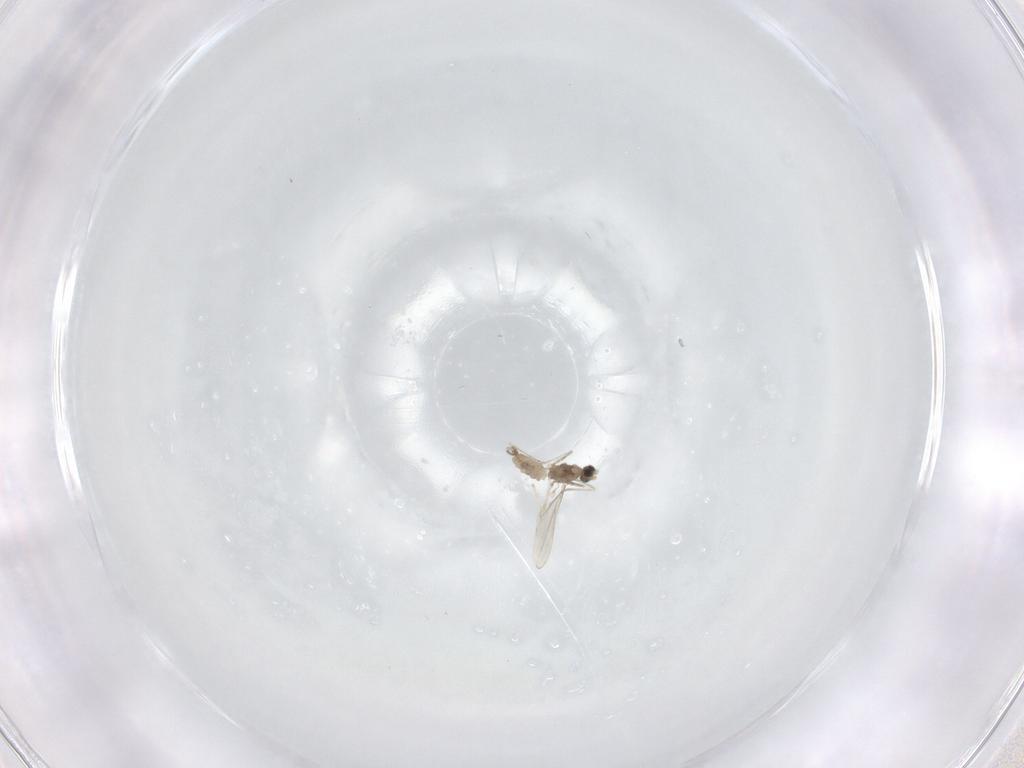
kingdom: Animalia
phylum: Arthropoda
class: Insecta
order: Diptera
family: Cecidomyiidae
